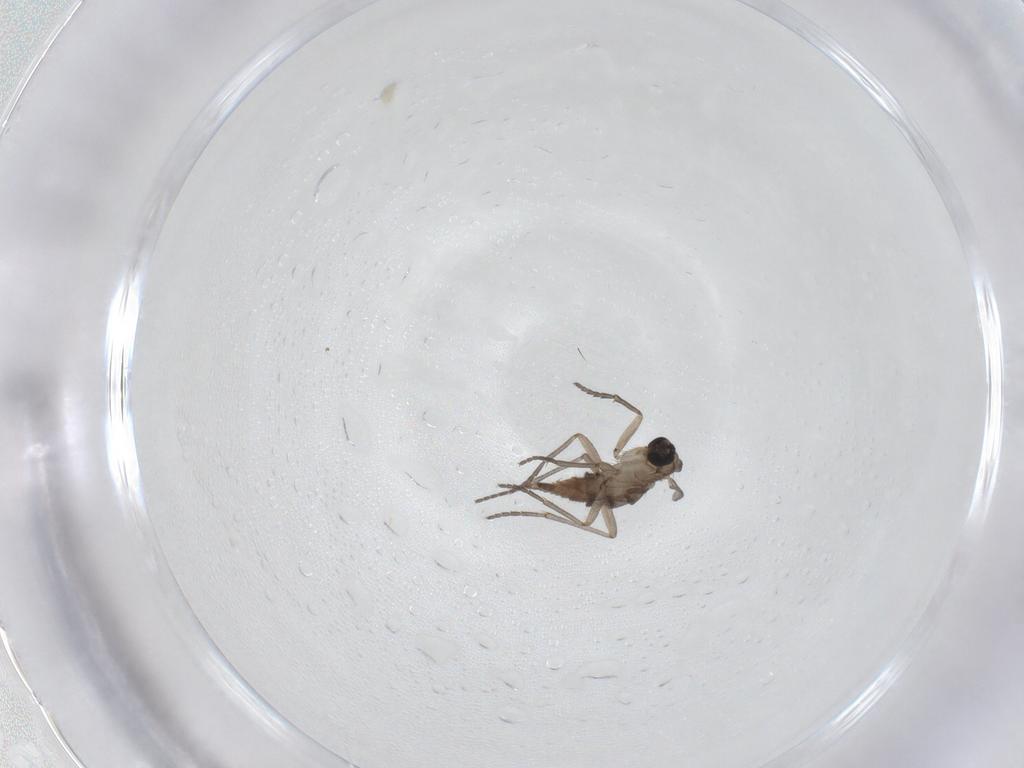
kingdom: Animalia
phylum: Arthropoda
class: Insecta
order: Diptera
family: Sciaridae
